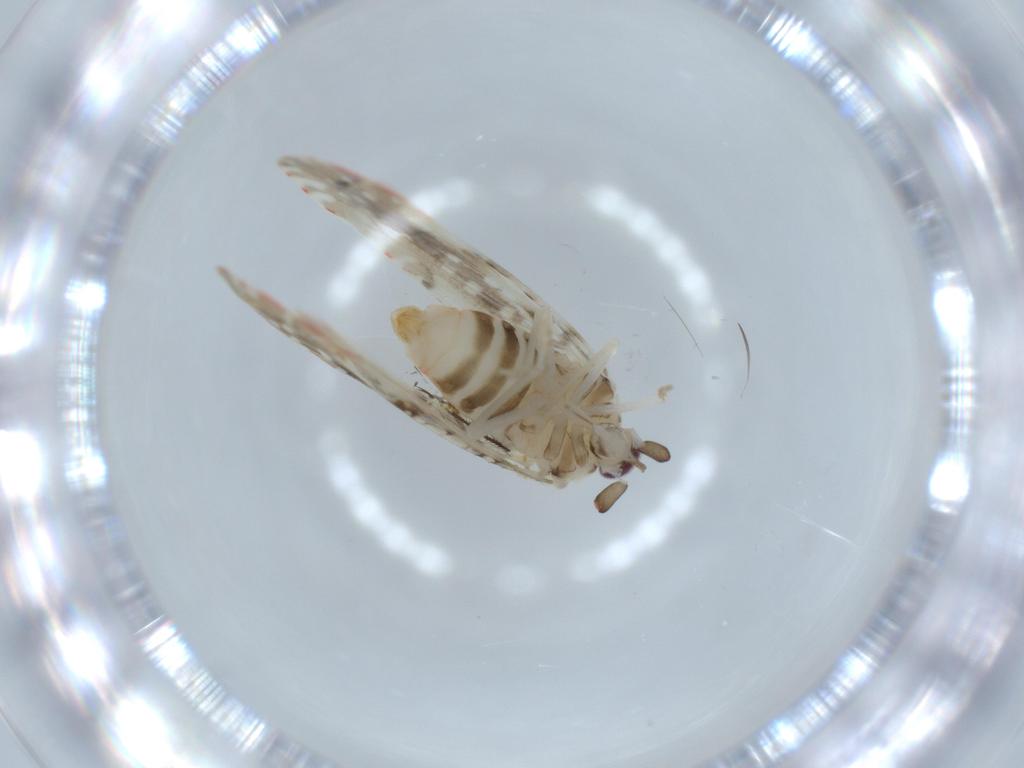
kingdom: Animalia
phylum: Arthropoda
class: Insecta
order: Hemiptera
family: Derbidae
